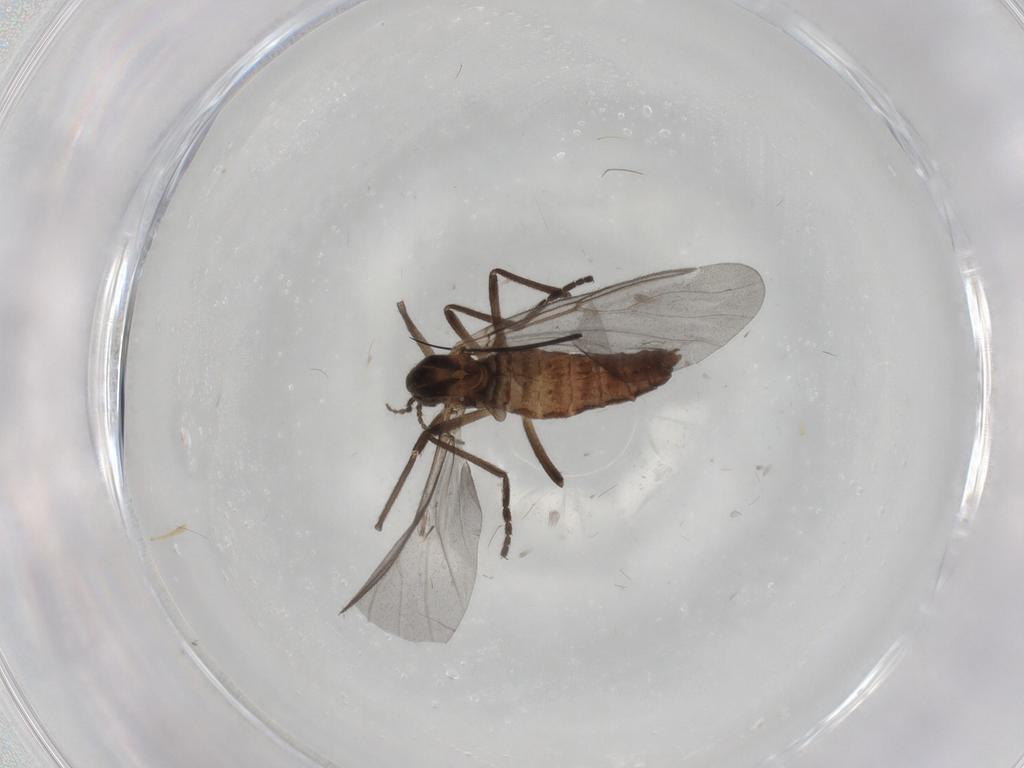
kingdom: Animalia
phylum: Arthropoda
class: Insecta
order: Diptera
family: Cecidomyiidae
